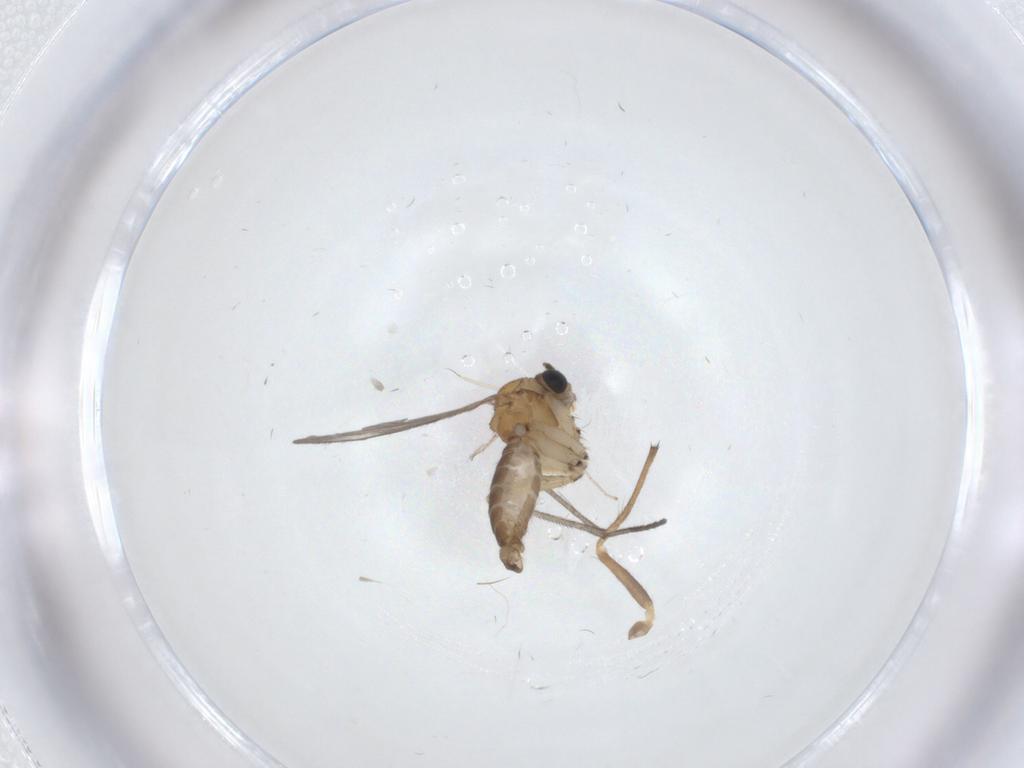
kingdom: Animalia
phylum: Arthropoda
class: Insecta
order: Diptera
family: Sciaridae
